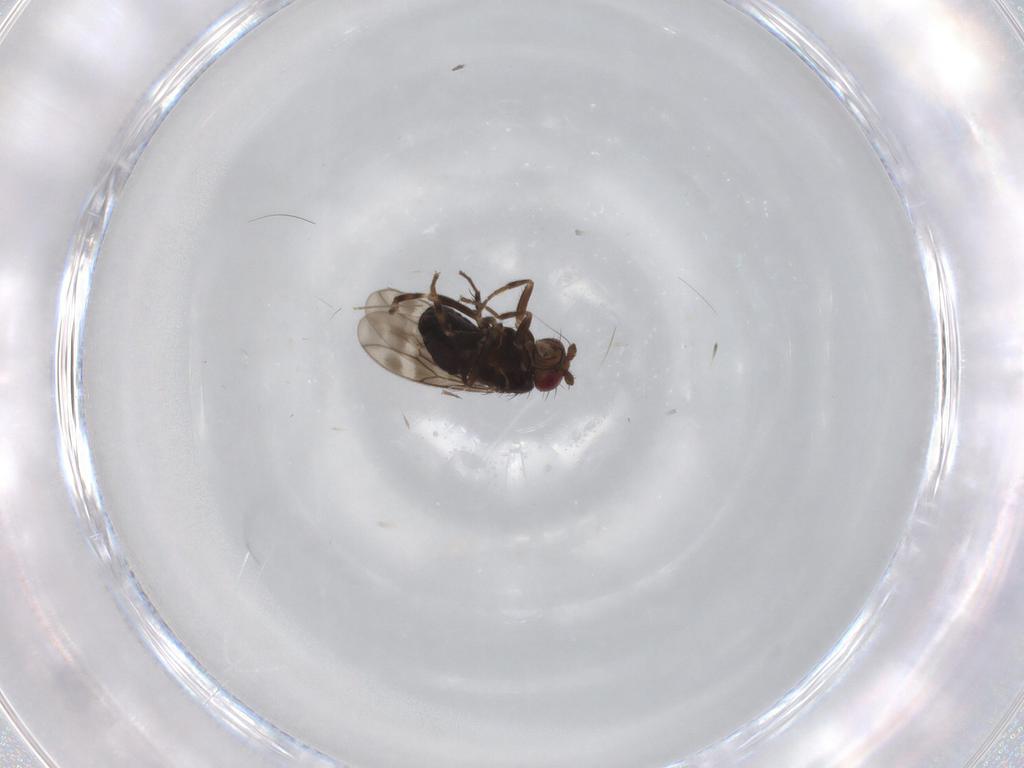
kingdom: Animalia
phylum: Arthropoda
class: Insecta
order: Diptera
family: Sphaeroceridae
